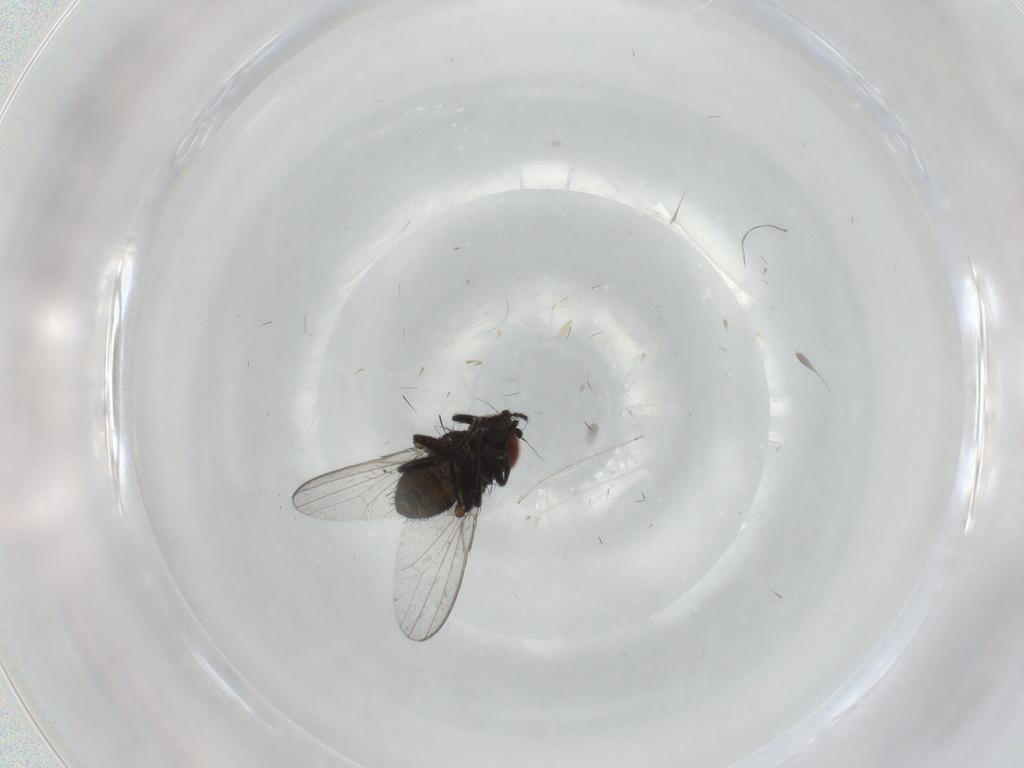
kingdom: Animalia
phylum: Arthropoda
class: Insecta
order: Diptera
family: Milichiidae
